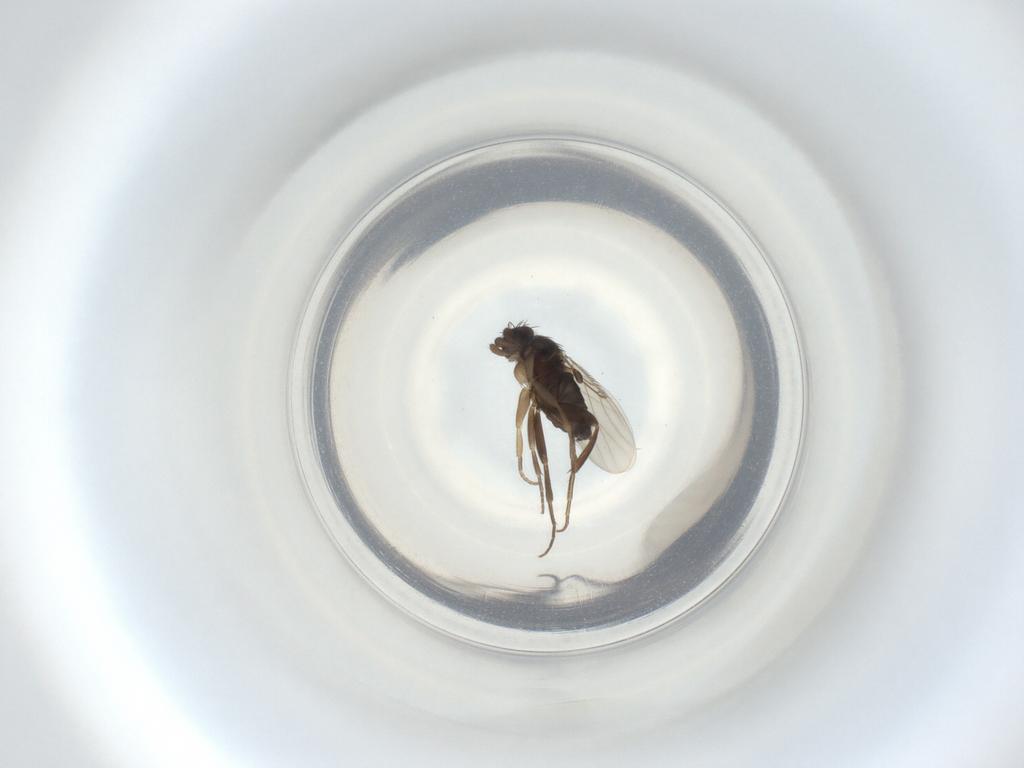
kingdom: Animalia
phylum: Arthropoda
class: Insecta
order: Diptera
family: Phoridae
